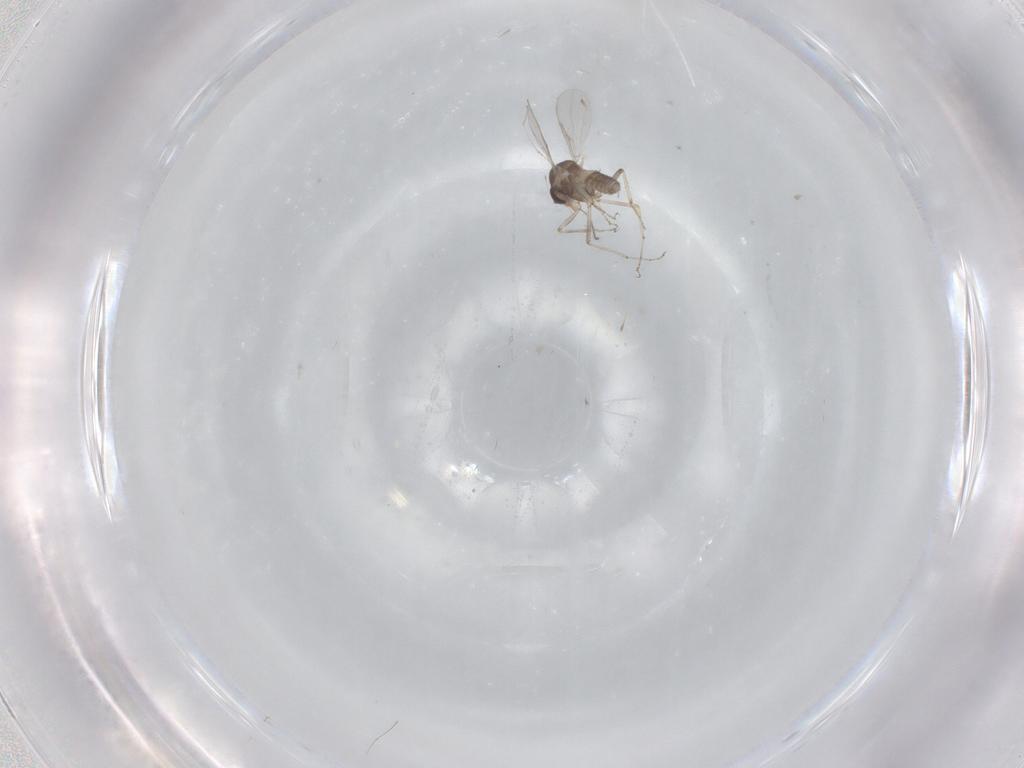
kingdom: Animalia
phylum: Arthropoda
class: Insecta
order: Diptera
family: Ceratopogonidae
